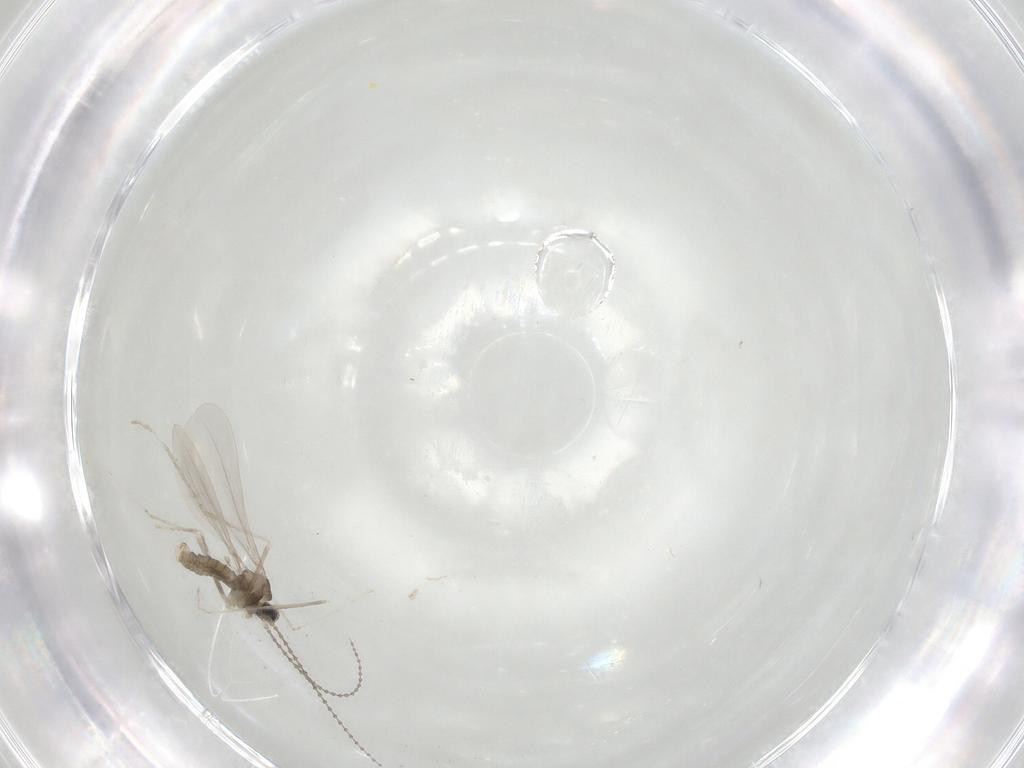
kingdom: Animalia
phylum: Arthropoda
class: Insecta
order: Diptera
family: Cecidomyiidae
